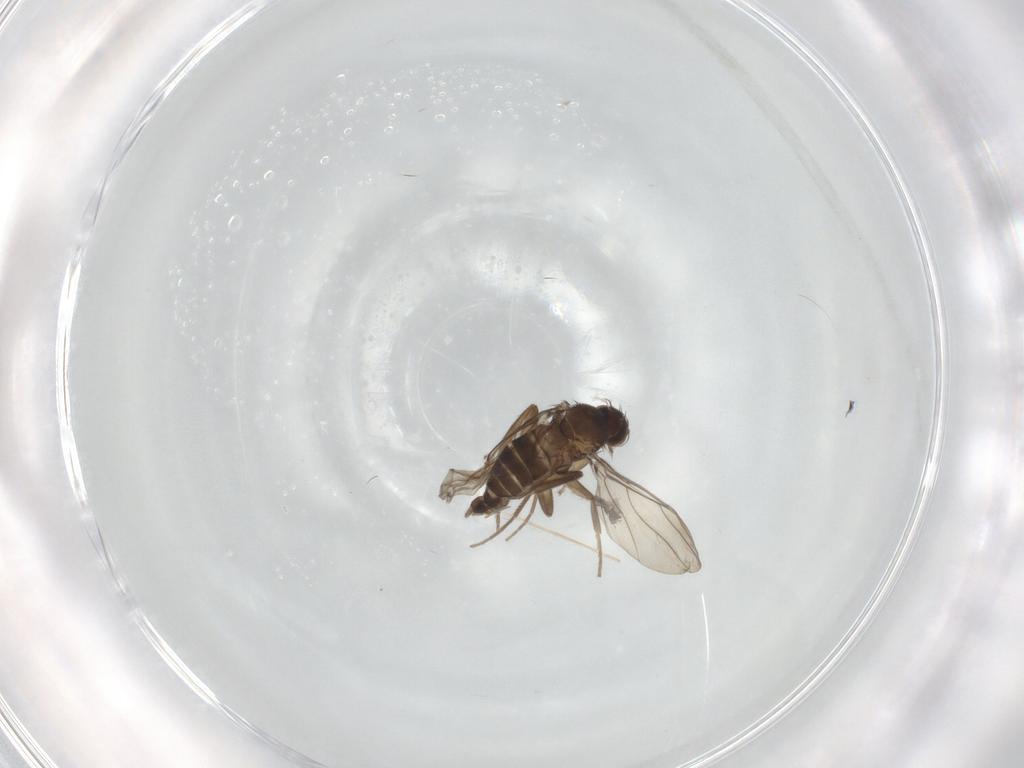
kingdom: Animalia
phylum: Arthropoda
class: Insecta
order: Diptera
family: Phoridae
